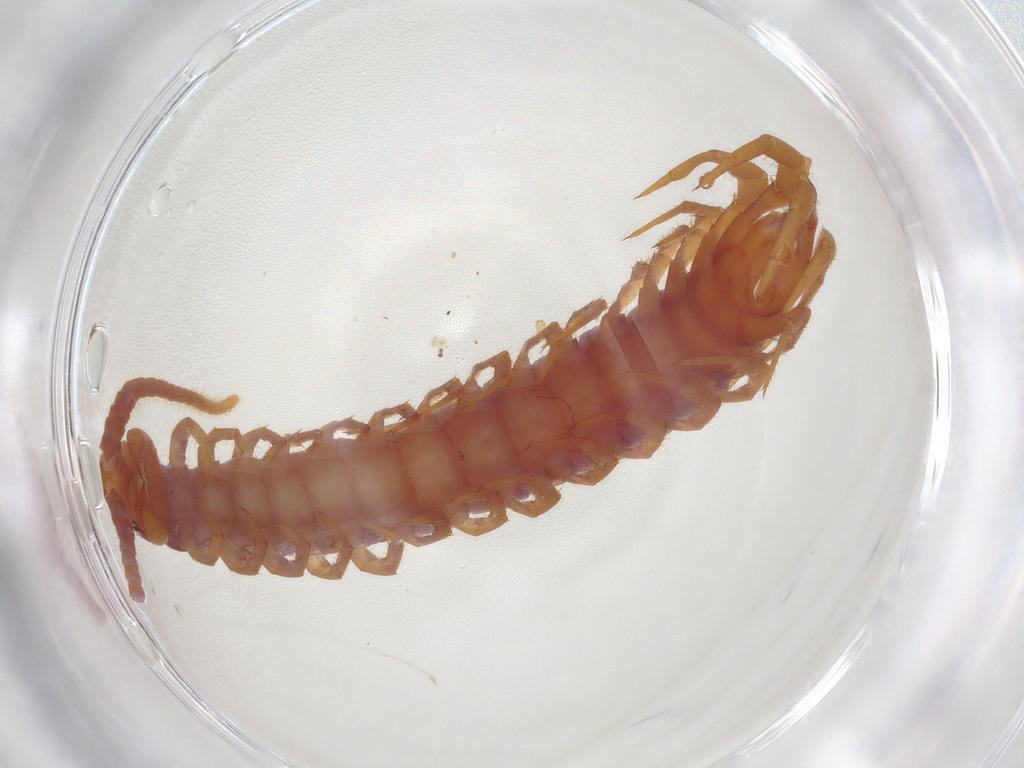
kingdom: Animalia
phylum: Arthropoda
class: Chilopoda
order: Lithobiomorpha
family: Lithobiidae
